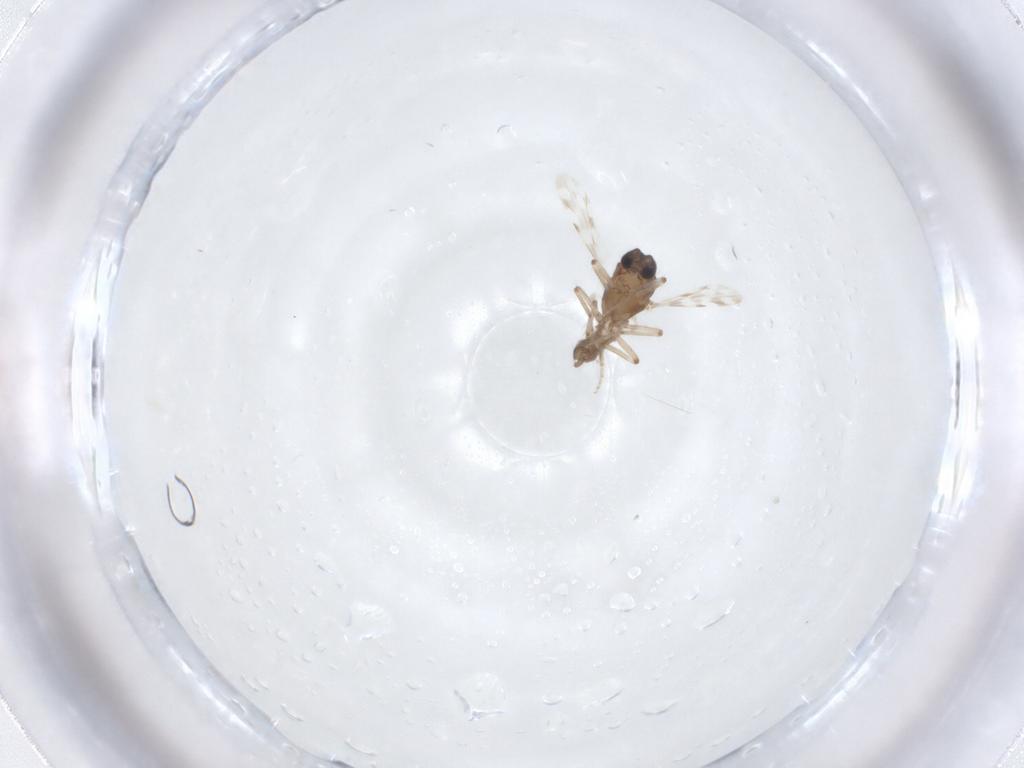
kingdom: Animalia
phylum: Arthropoda
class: Insecta
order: Diptera
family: Ceratopogonidae
